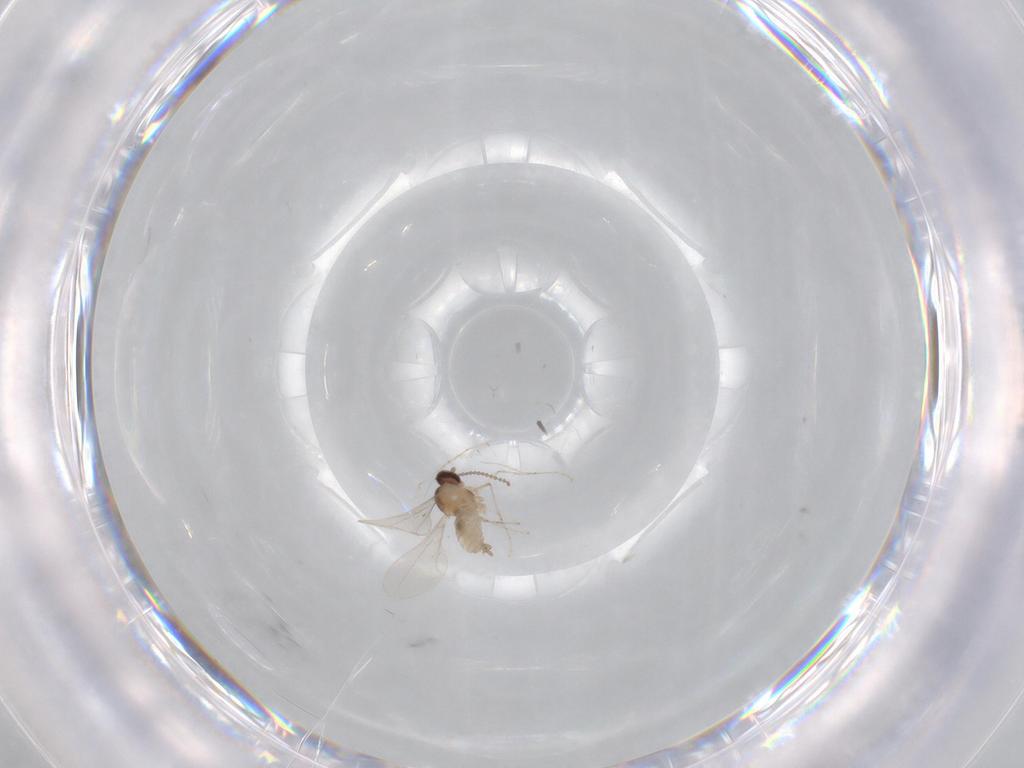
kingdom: Animalia
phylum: Arthropoda
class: Insecta
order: Diptera
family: Cecidomyiidae
